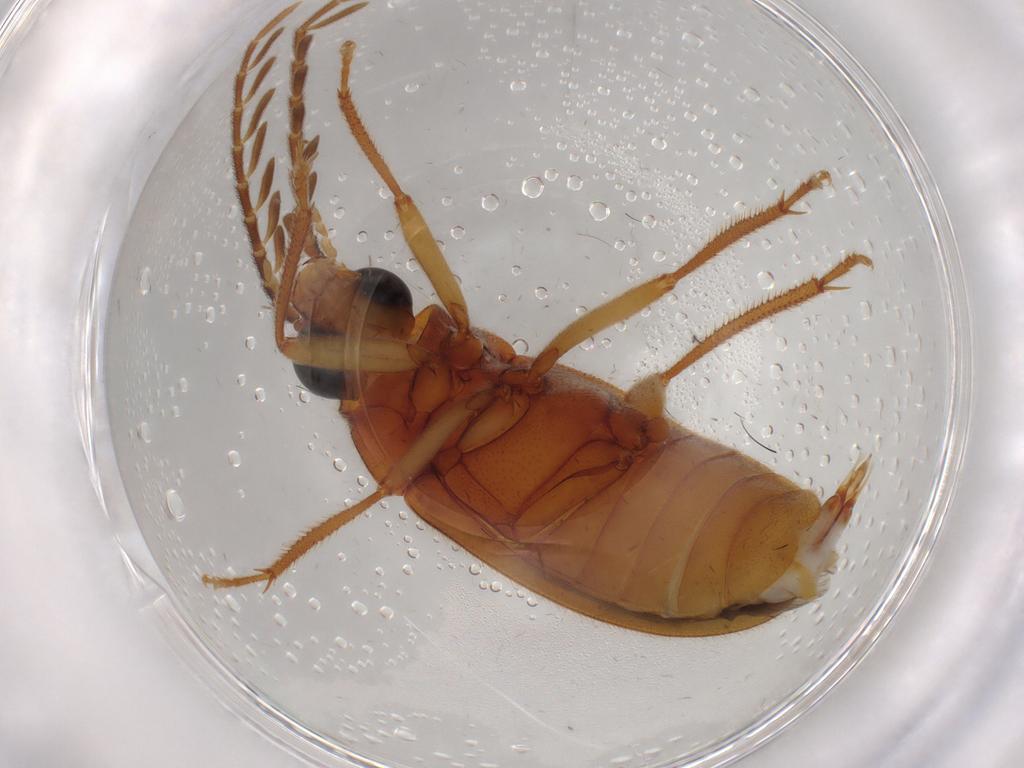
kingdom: Animalia
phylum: Arthropoda
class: Insecta
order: Coleoptera
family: Ptilodactylidae
